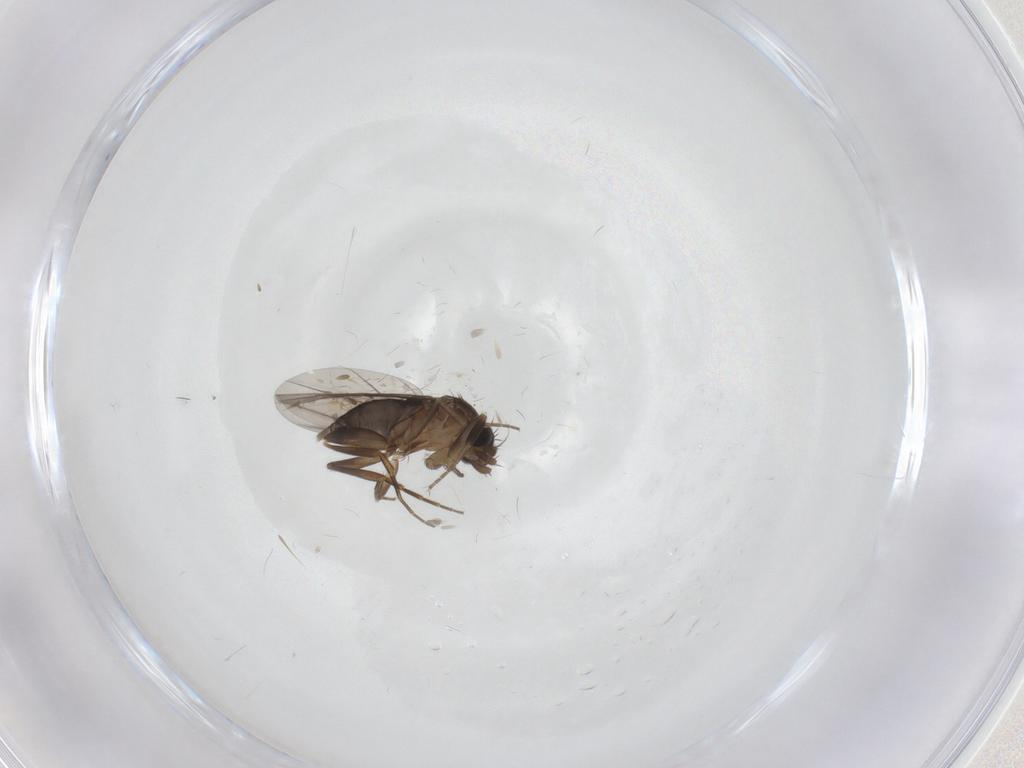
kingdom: Animalia
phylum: Arthropoda
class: Insecta
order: Diptera
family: Phoridae
